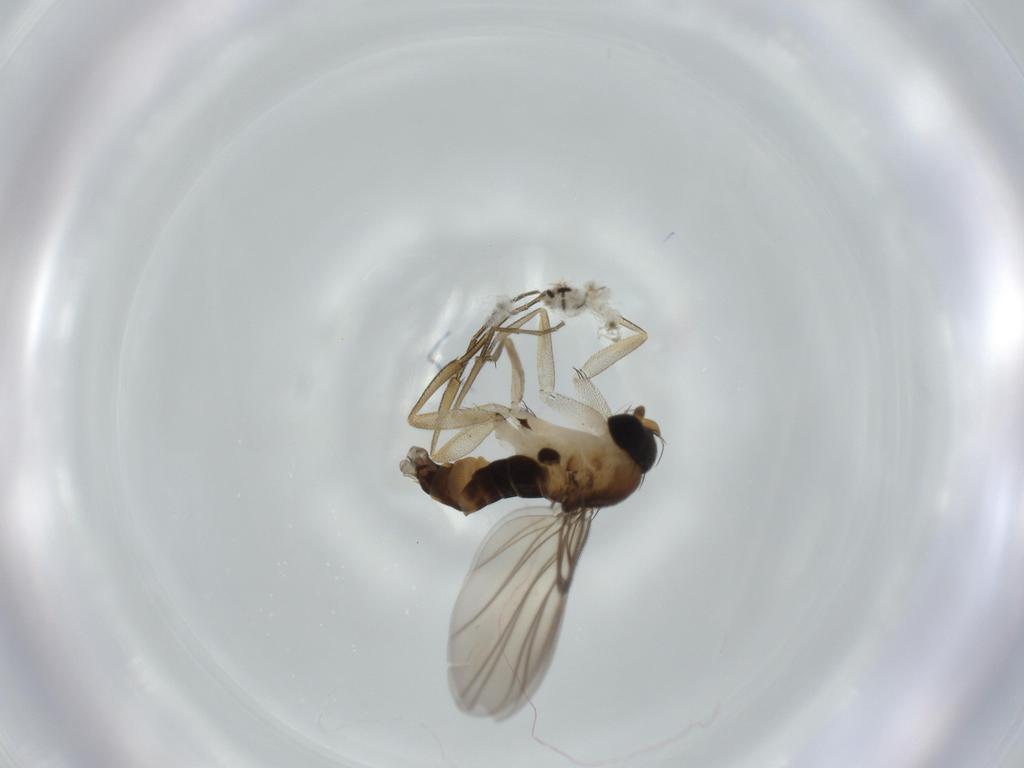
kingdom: Animalia
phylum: Arthropoda
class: Insecta
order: Diptera
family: Phoridae
